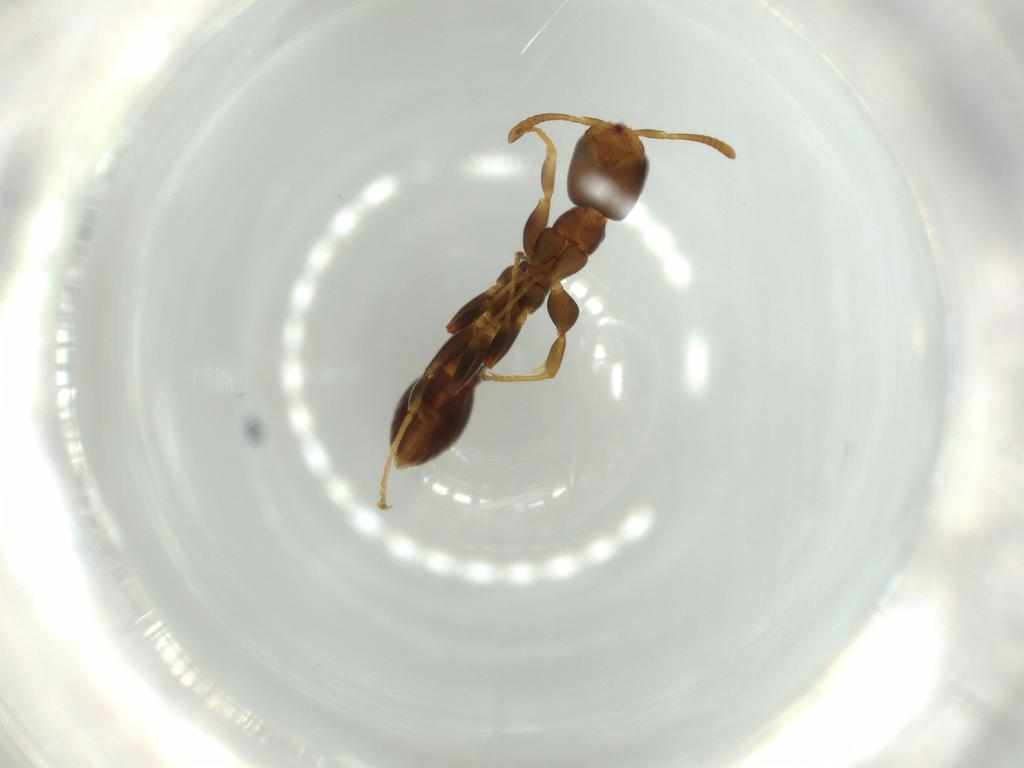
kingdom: Animalia
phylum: Arthropoda
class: Insecta
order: Hymenoptera
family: Formicidae
